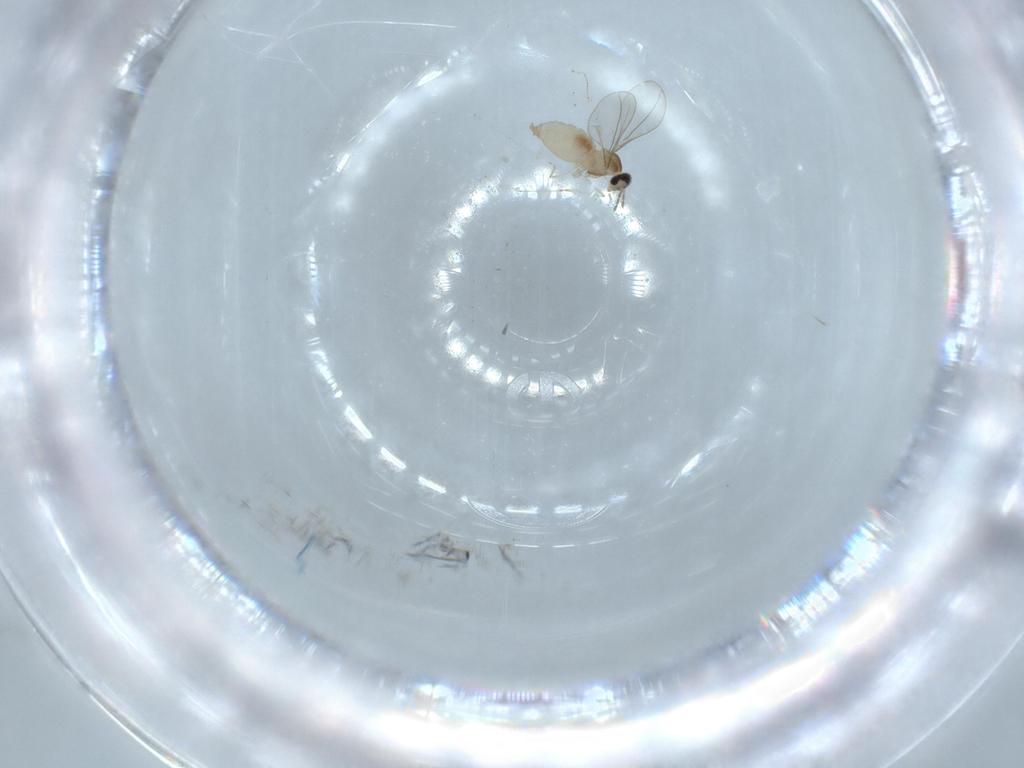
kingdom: Animalia
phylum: Arthropoda
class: Insecta
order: Diptera
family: Cecidomyiidae
